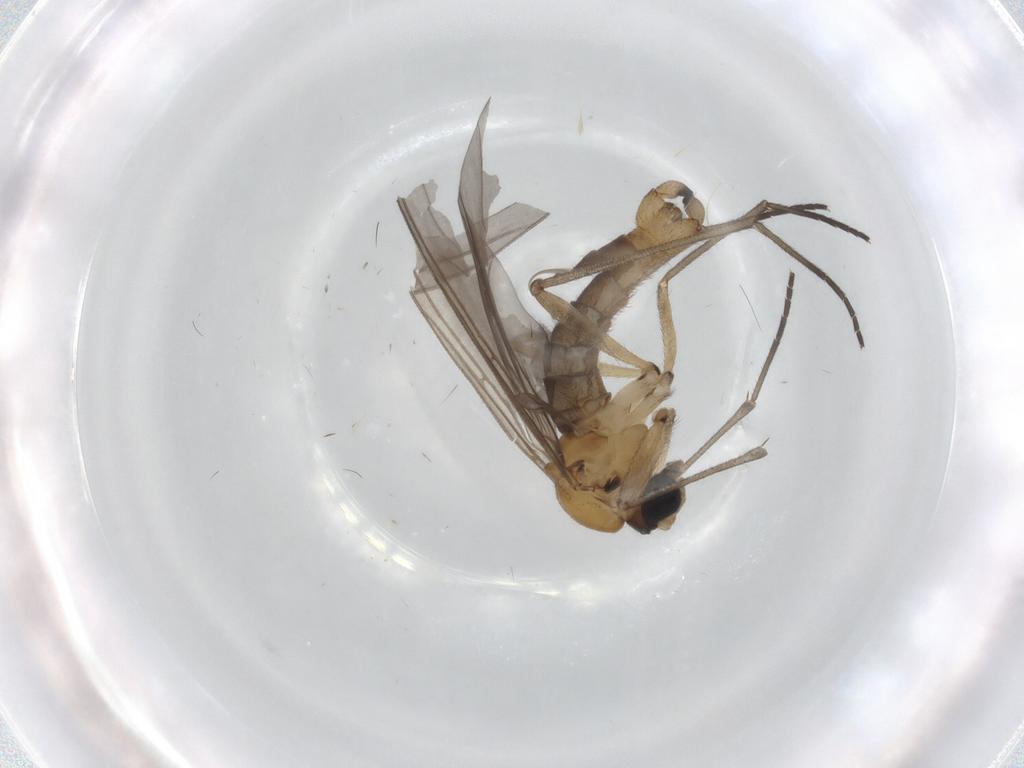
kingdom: Animalia
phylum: Arthropoda
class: Insecta
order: Diptera
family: Sciaridae
